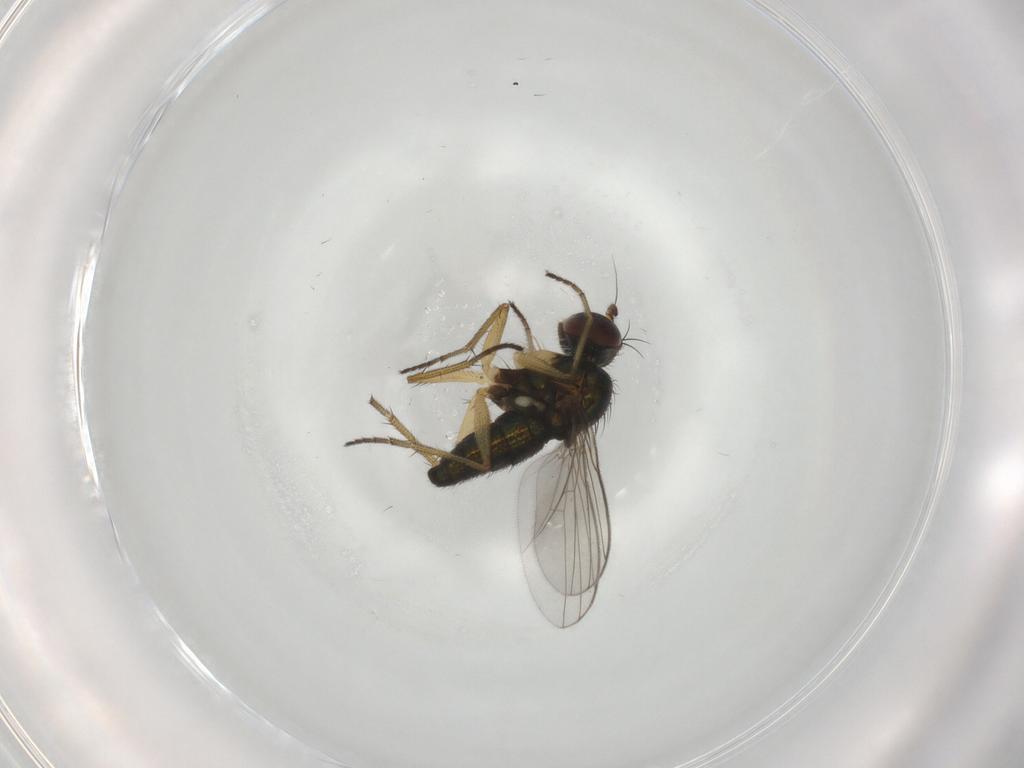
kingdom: Animalia
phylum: Arthropoda
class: Insecta
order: Diptera
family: Dolichopodidae
